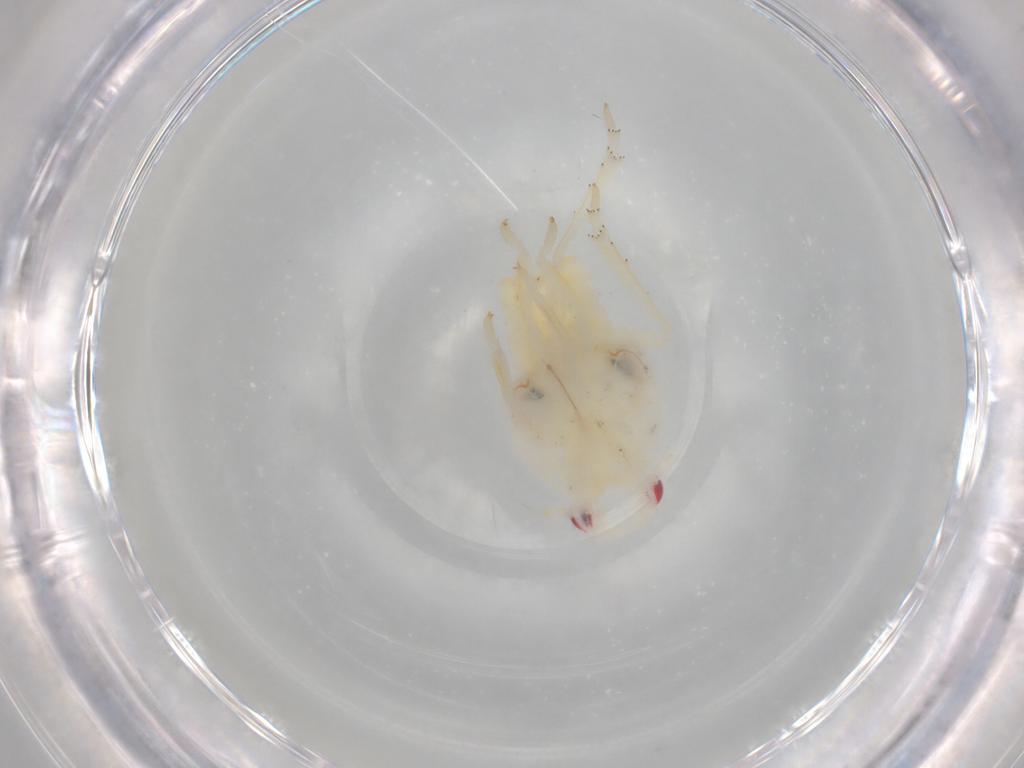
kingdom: Animalia
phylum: Arthropoda
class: Insecta
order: Hemiptera
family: Flatidae
